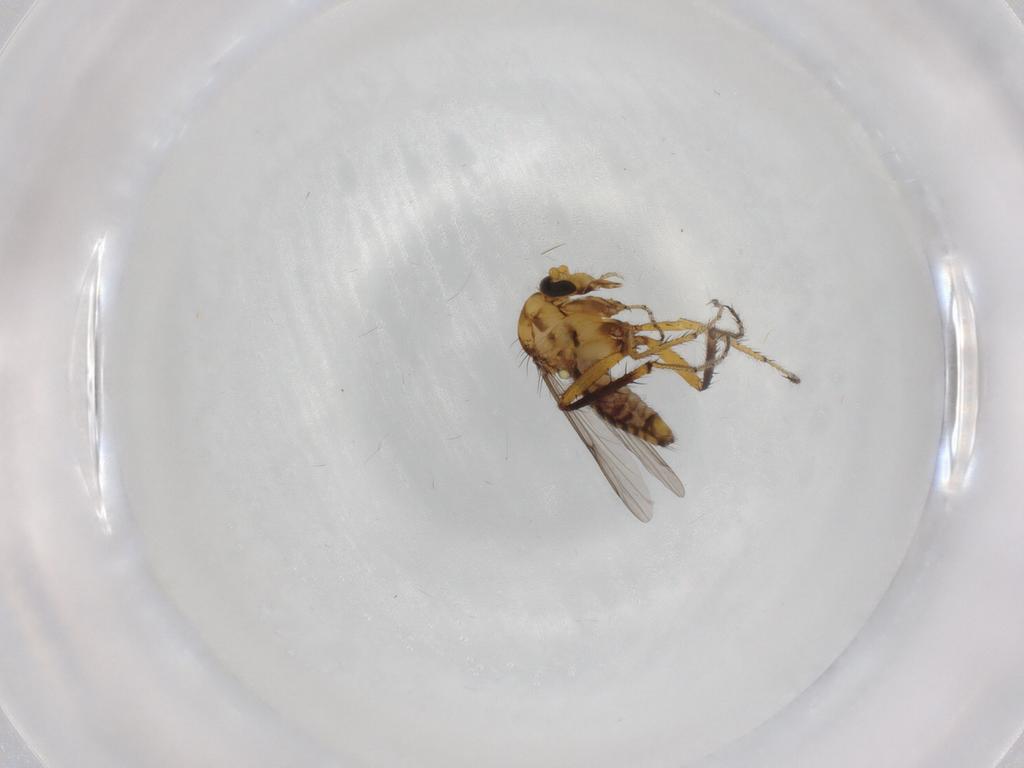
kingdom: Animalia
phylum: Arthropoda
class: Insecta
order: Diptera
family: Ceratopogonidae
